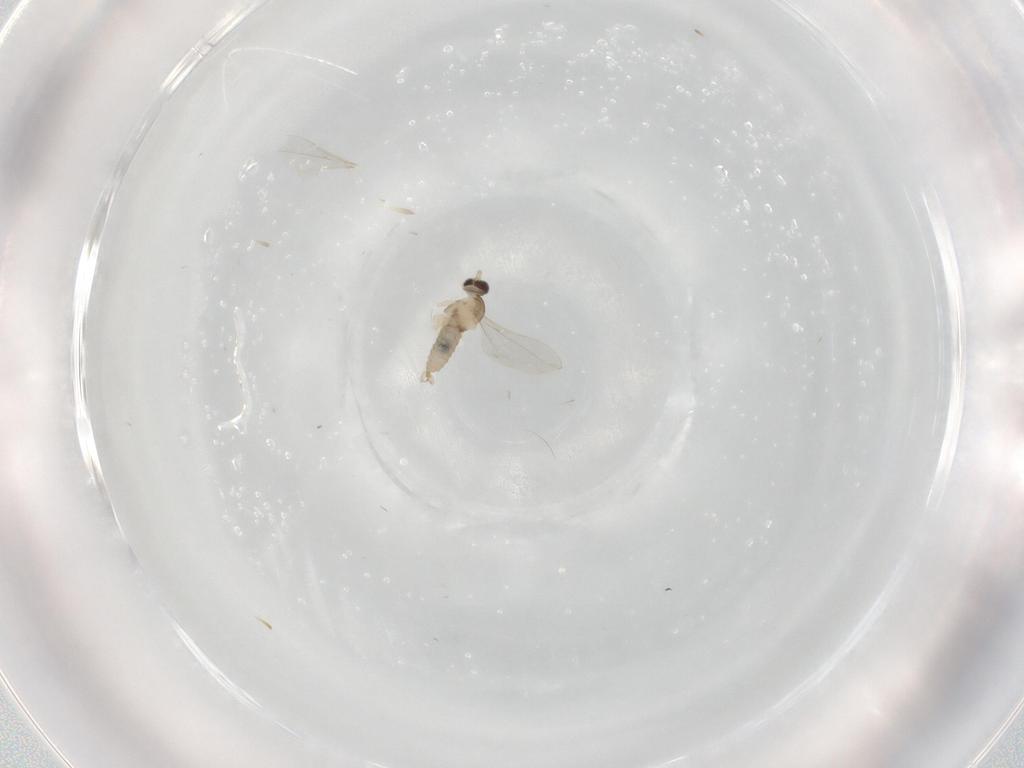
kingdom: Animalia
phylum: Arthropoda
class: Insecta
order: Diptera
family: Cecidomyiidae
